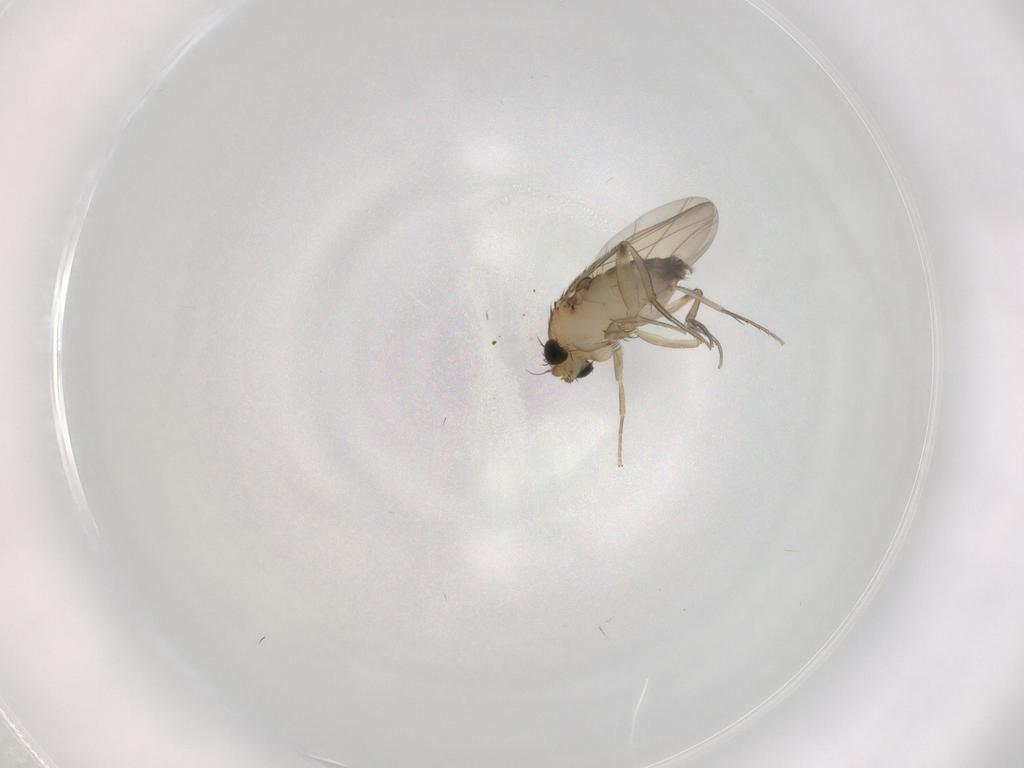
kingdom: Animalia
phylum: Arthropoda
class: Insecta
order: Diptera
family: Phoridae
